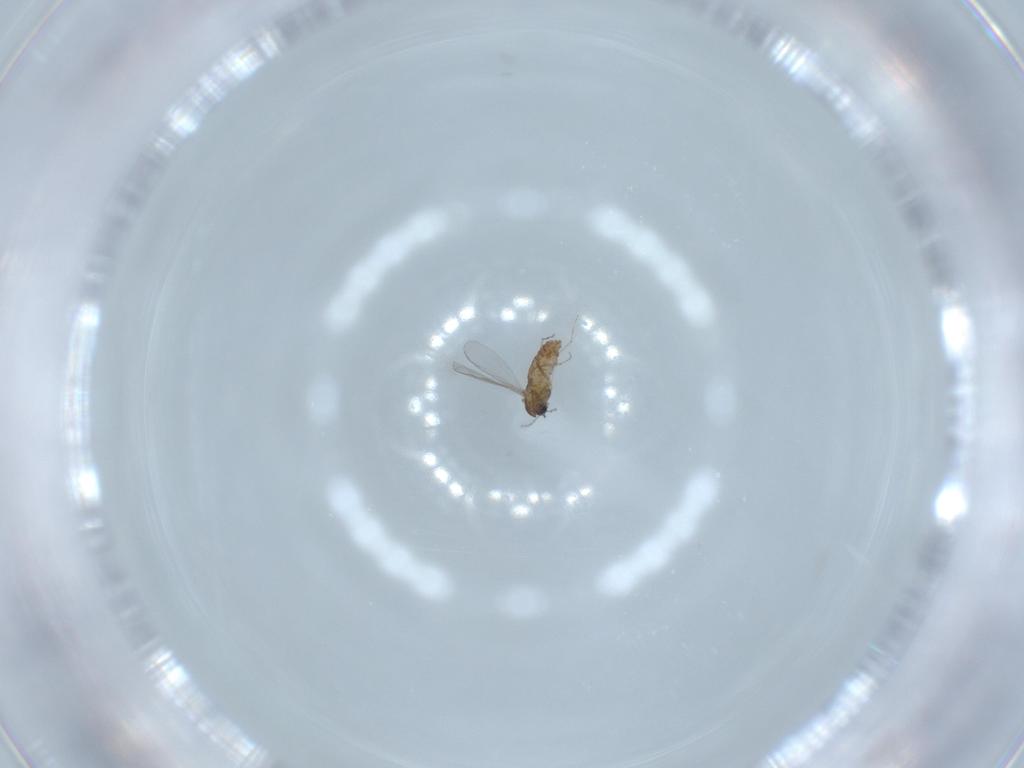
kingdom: Animalia
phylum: Arthropoda
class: Insecta
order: Diptera
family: Chironomidae
